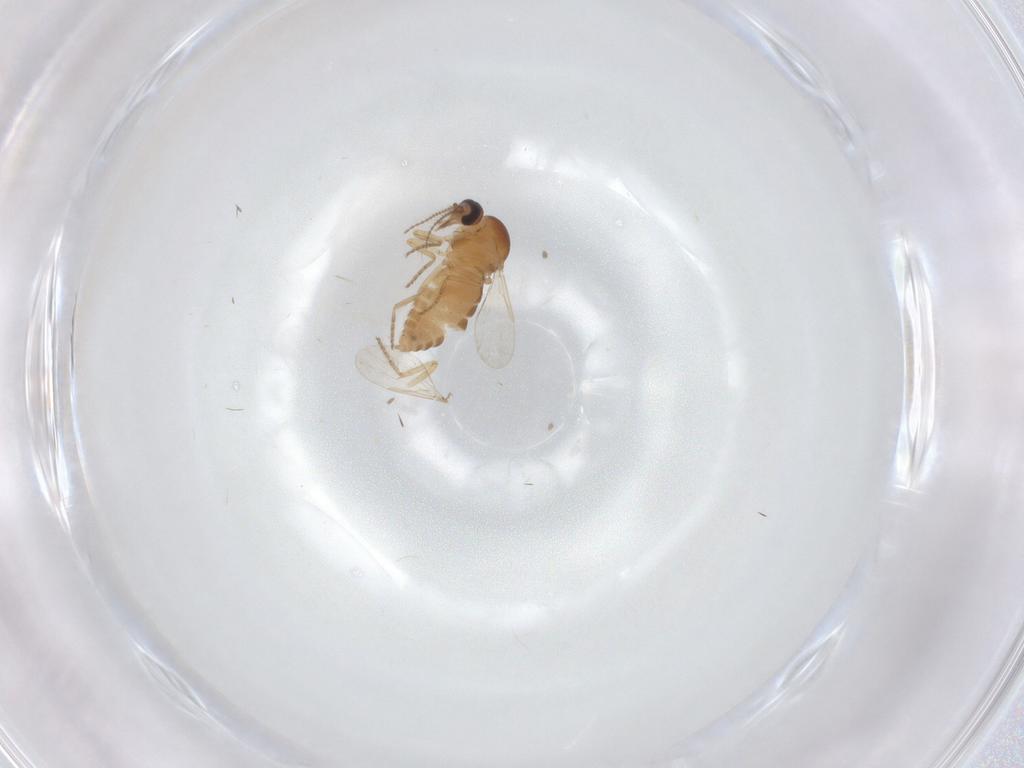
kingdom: Animalia
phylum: Arthropoda
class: Insecta
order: Diptera
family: Ceratopogonidae
